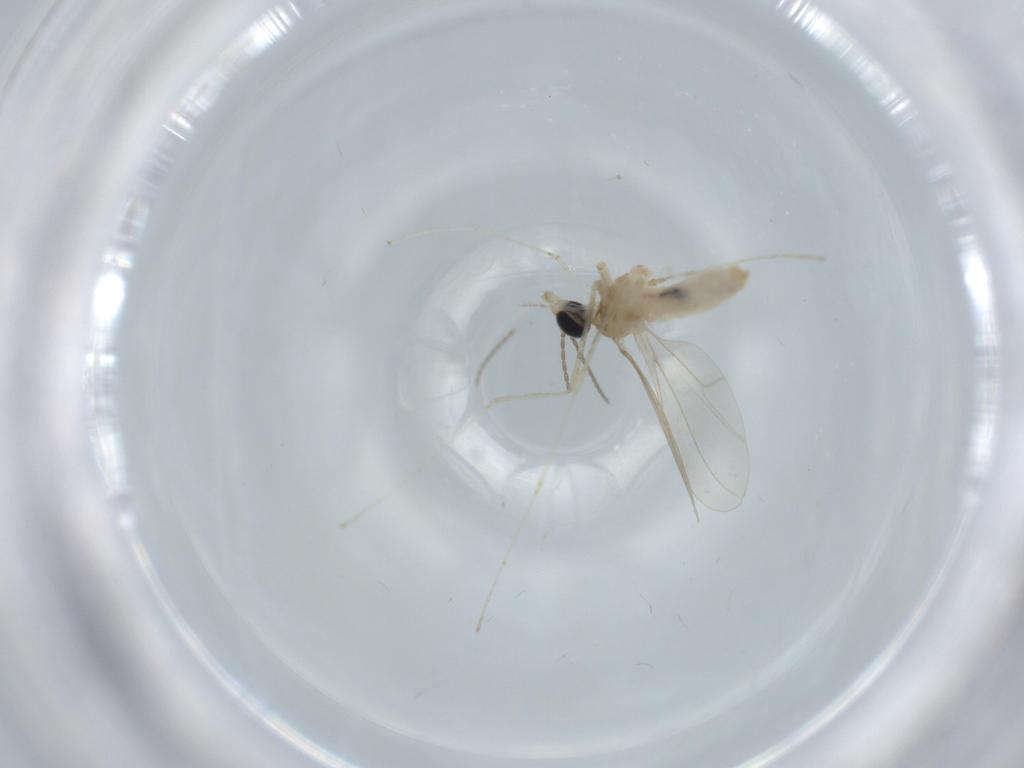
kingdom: Animalia
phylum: Arthropoda
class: Insecta
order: Diptera
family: Cecidomyiidae
